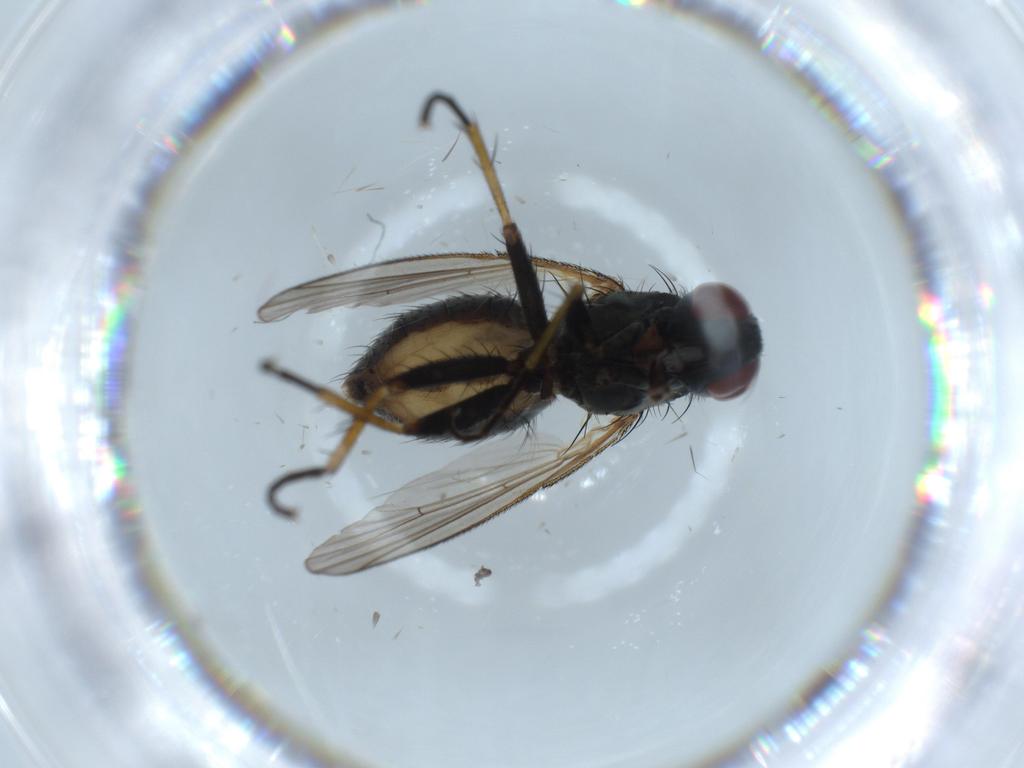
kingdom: Animalia
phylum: Arthropoda
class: Insecta
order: Diptera
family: Muscidae
